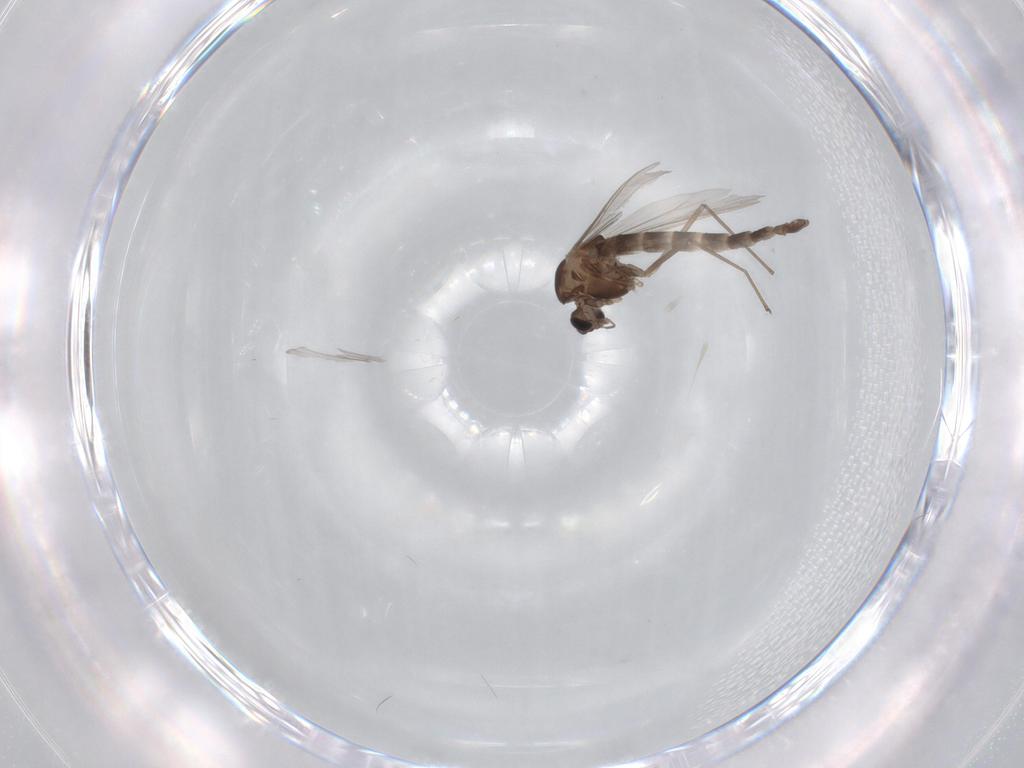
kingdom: Animalia
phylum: Arthropoda
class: Insecta
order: Diptera
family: Chironomidae
